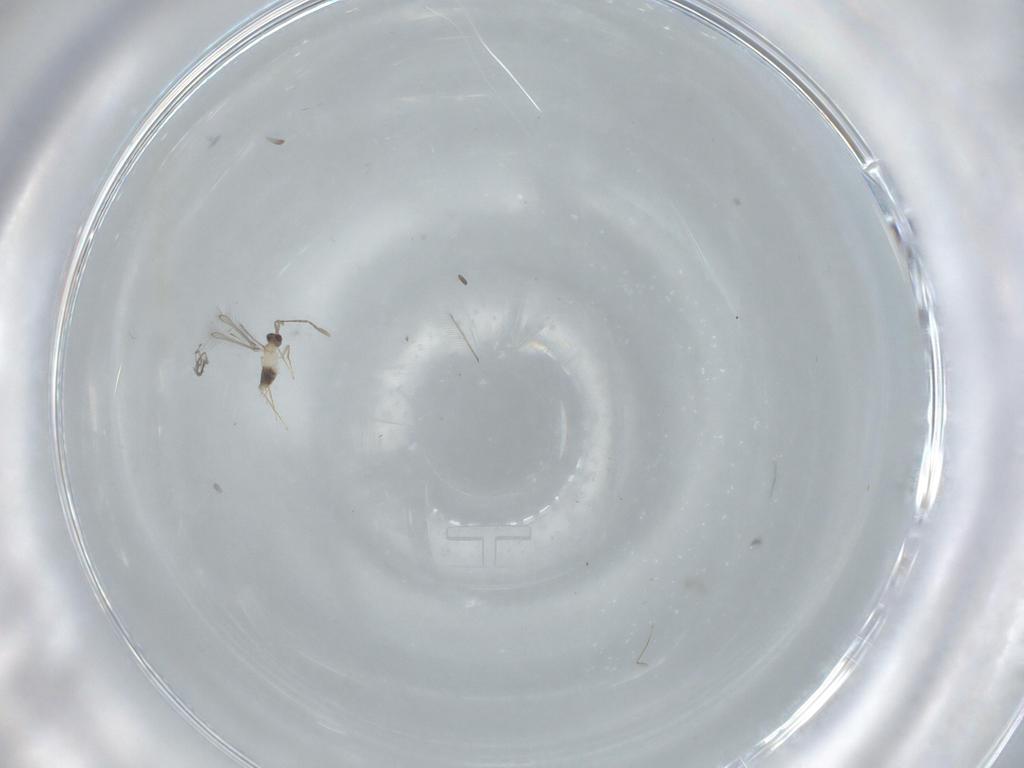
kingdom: Animalia
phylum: Arthropoda
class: Insecta
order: Hymenoptera
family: Mymaridae
